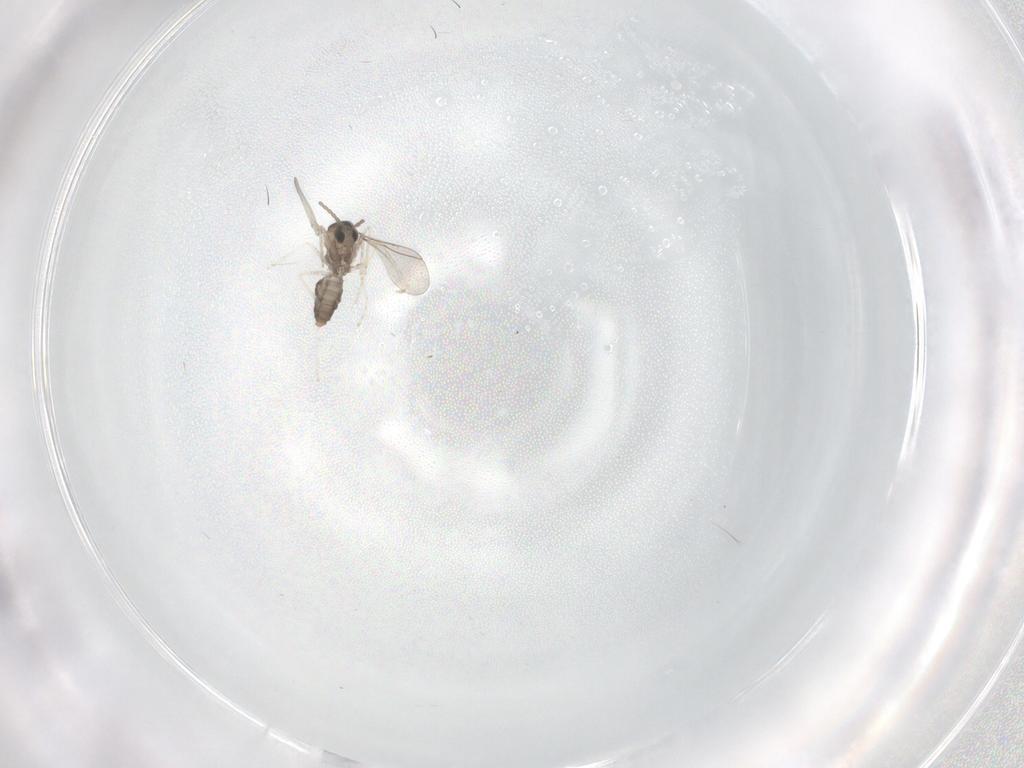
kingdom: Animalia
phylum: Arthropoda
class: Insecta
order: Diptera
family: Cecidomyiidae
